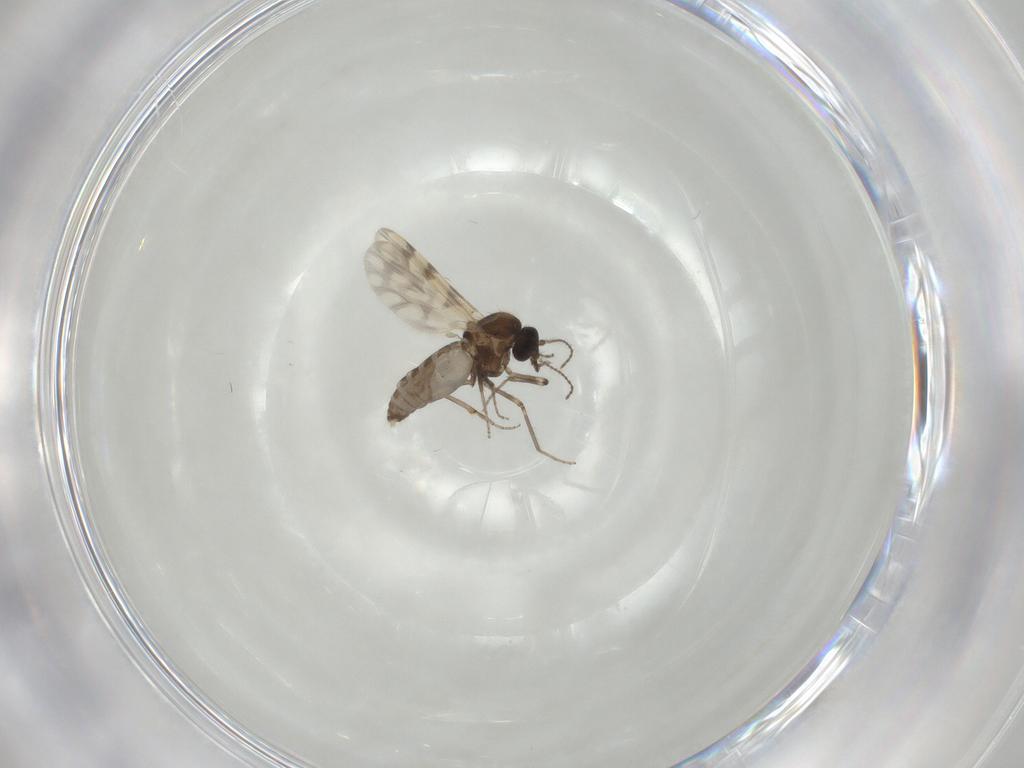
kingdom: Animalia
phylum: Arthropoda
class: Insecta
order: Diptera
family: Ceratopogonidae
